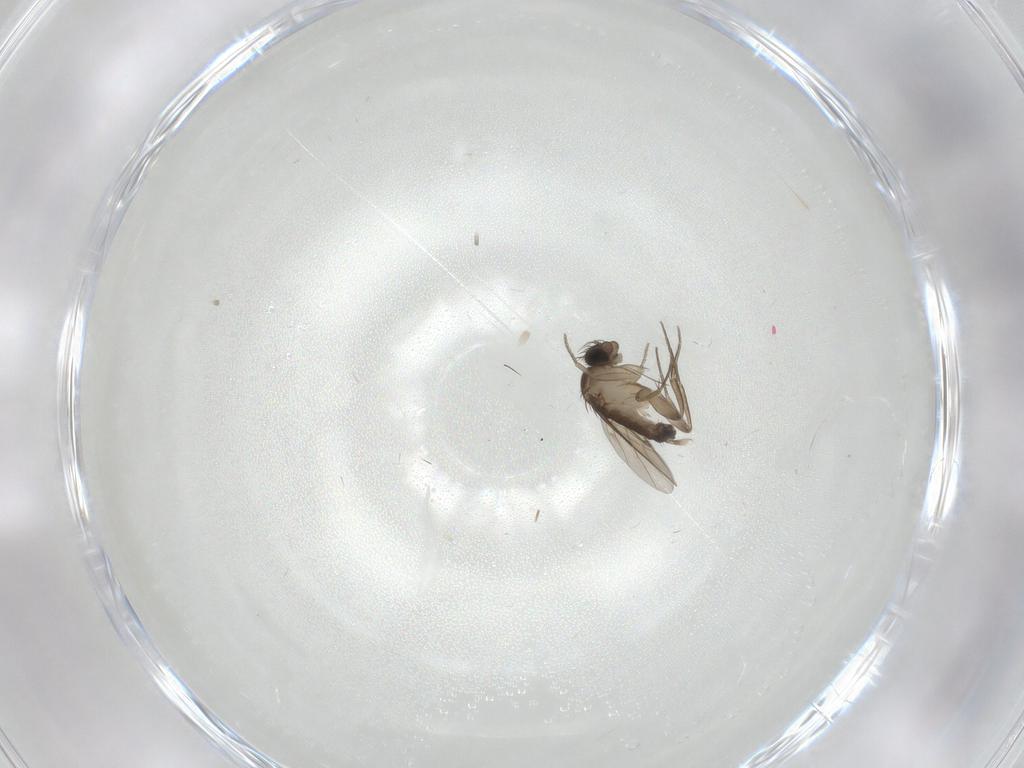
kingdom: Animalia
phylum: Arthropoda
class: Insecta
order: Diptera
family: Phoridae
